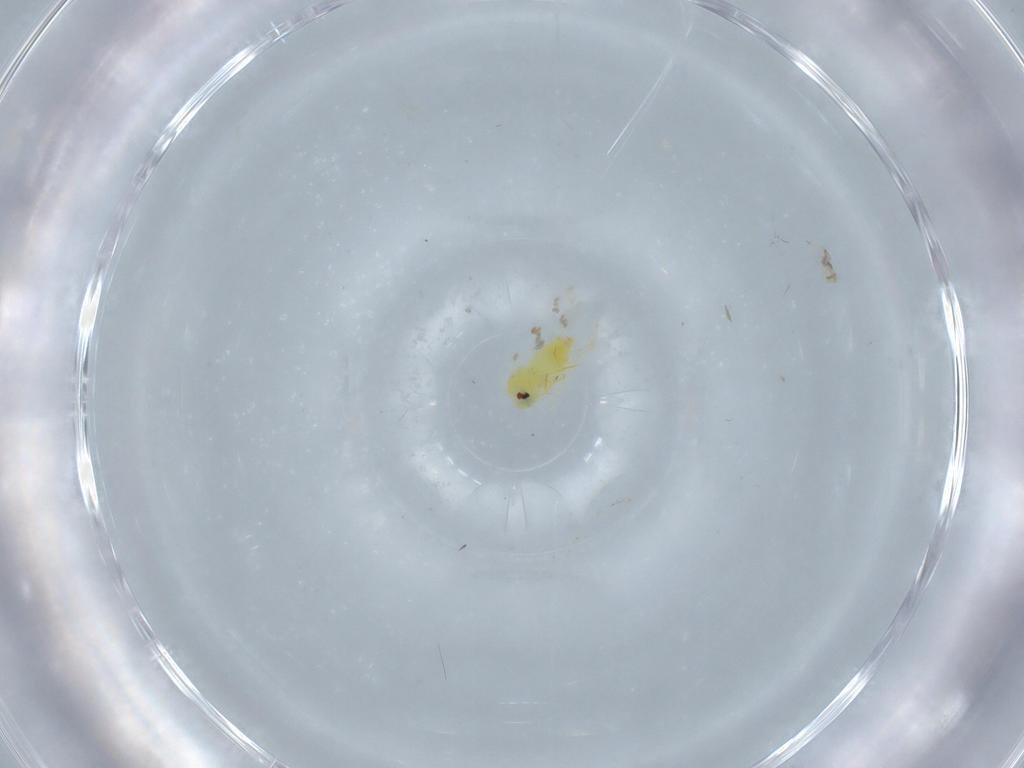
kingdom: Animalia
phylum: Arthropoda
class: Insecta
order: Hemiptera
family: Aleyrodidae
